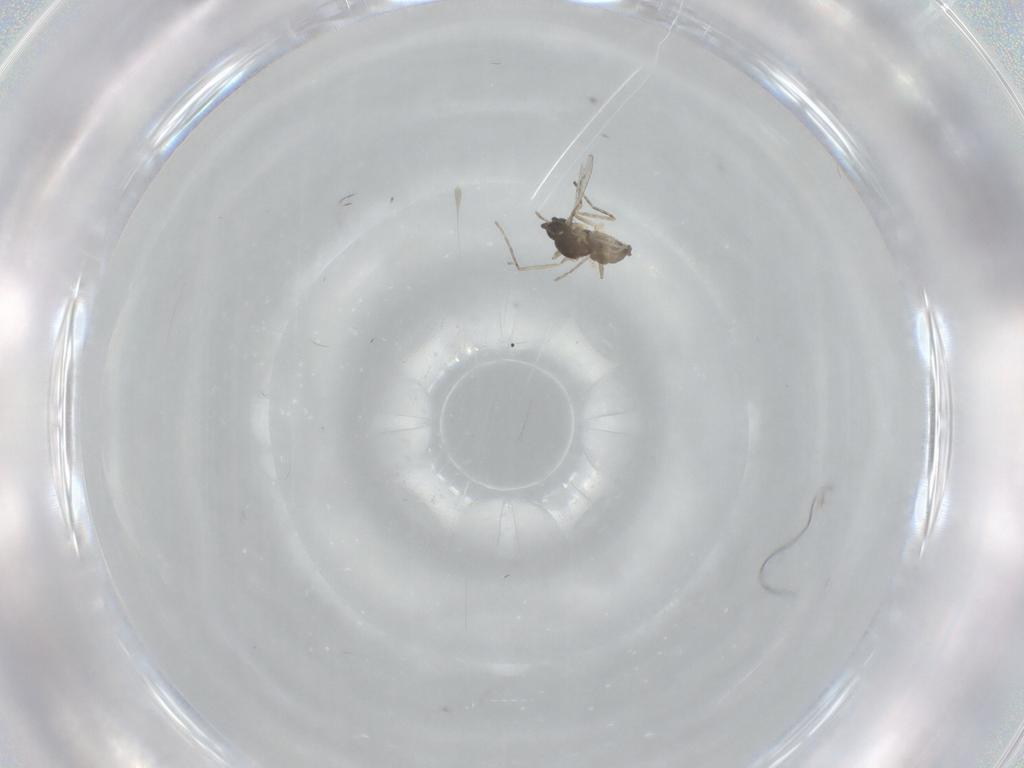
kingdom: Animalia
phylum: Arthropoda
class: Insecta
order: Diptera
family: Cecidomyiidae
